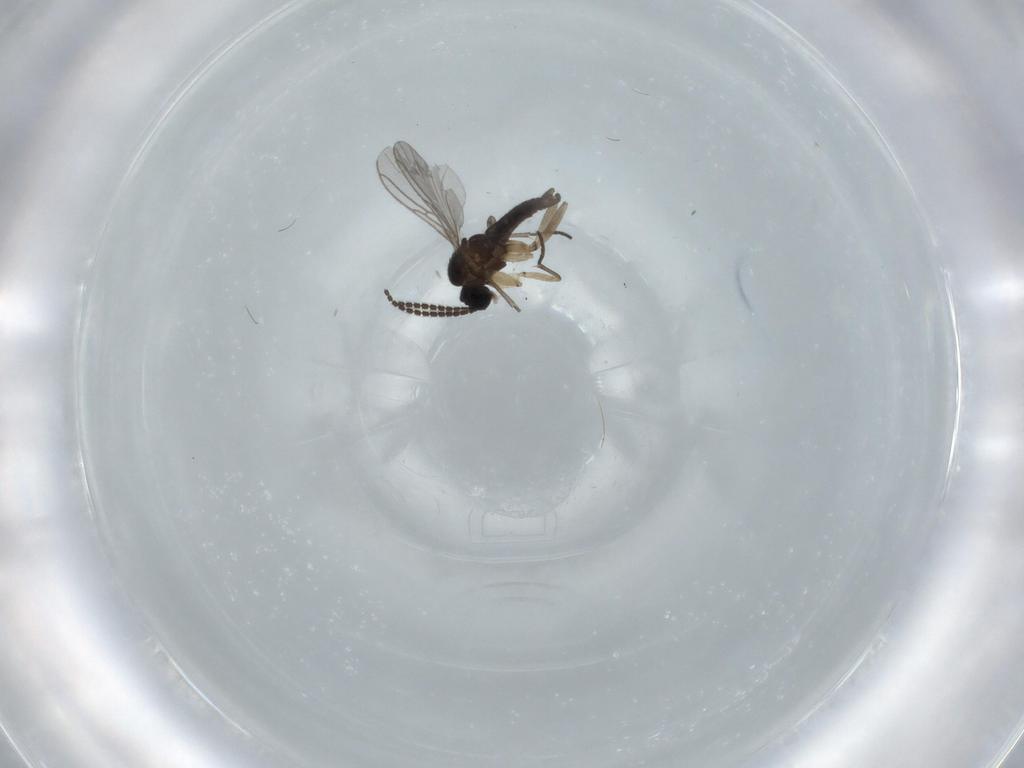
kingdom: Animalia
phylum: Arthropoda
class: Insecta
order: Diptera
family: Sciaridae
